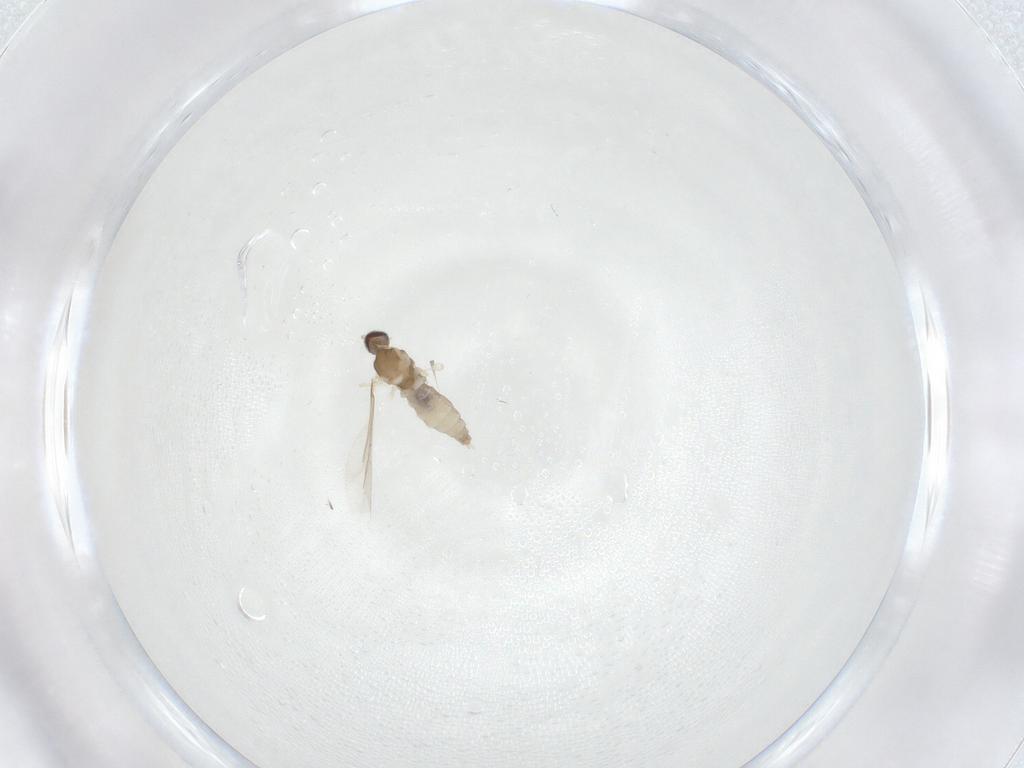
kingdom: Animalia
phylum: Arthropoda
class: Insecta
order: Diptera
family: Cecidomyiidae
